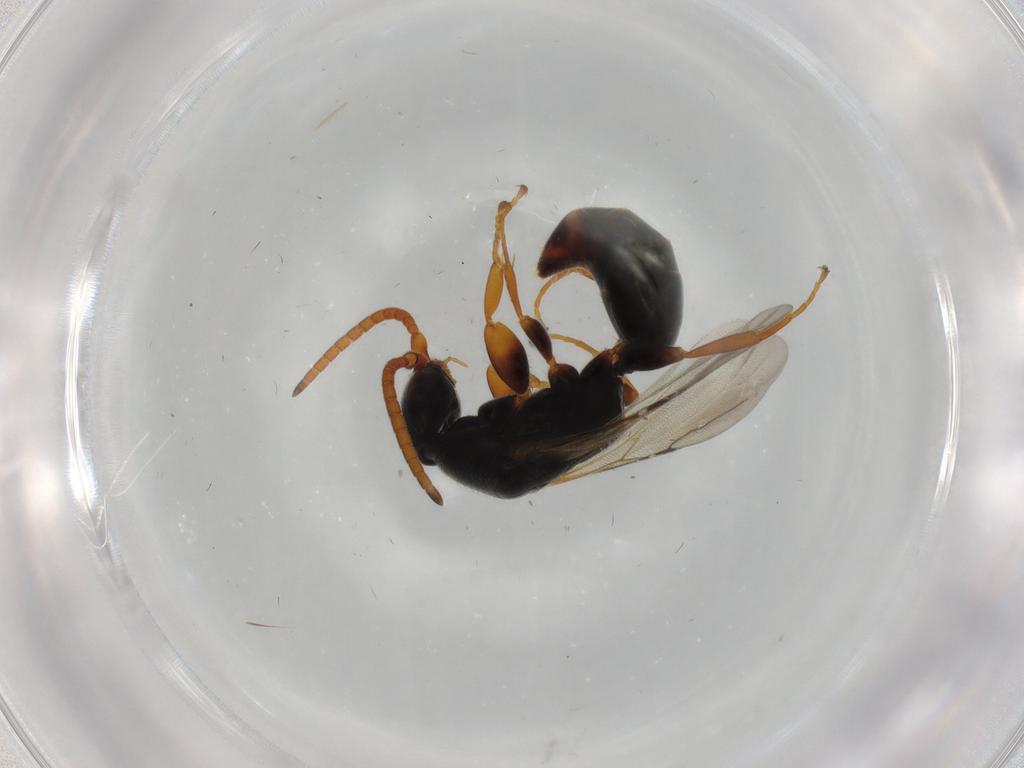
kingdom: Animalia
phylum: Arthropoda
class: Insecta
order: Hymenoptera
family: Bethylidae
